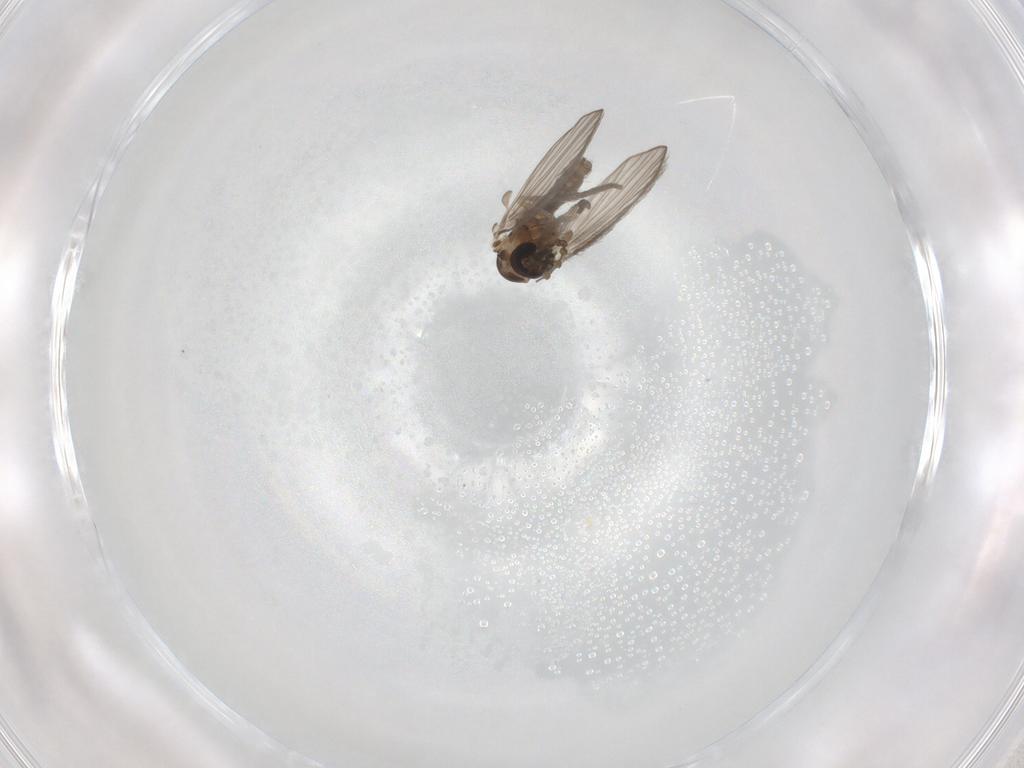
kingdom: Animalia
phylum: Arthropoda
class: Insecta
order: Diptera
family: Psychodidae
